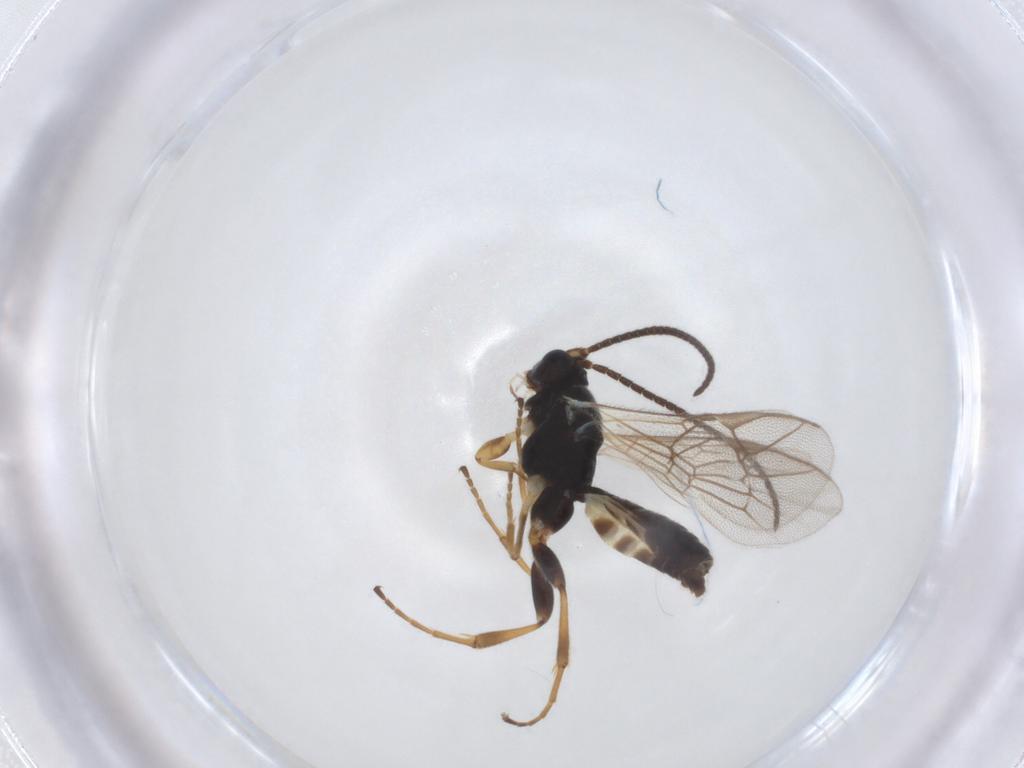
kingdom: Animalia
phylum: Arthropoda
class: Insecta
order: Hymenoptera
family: Ichneumonidae
